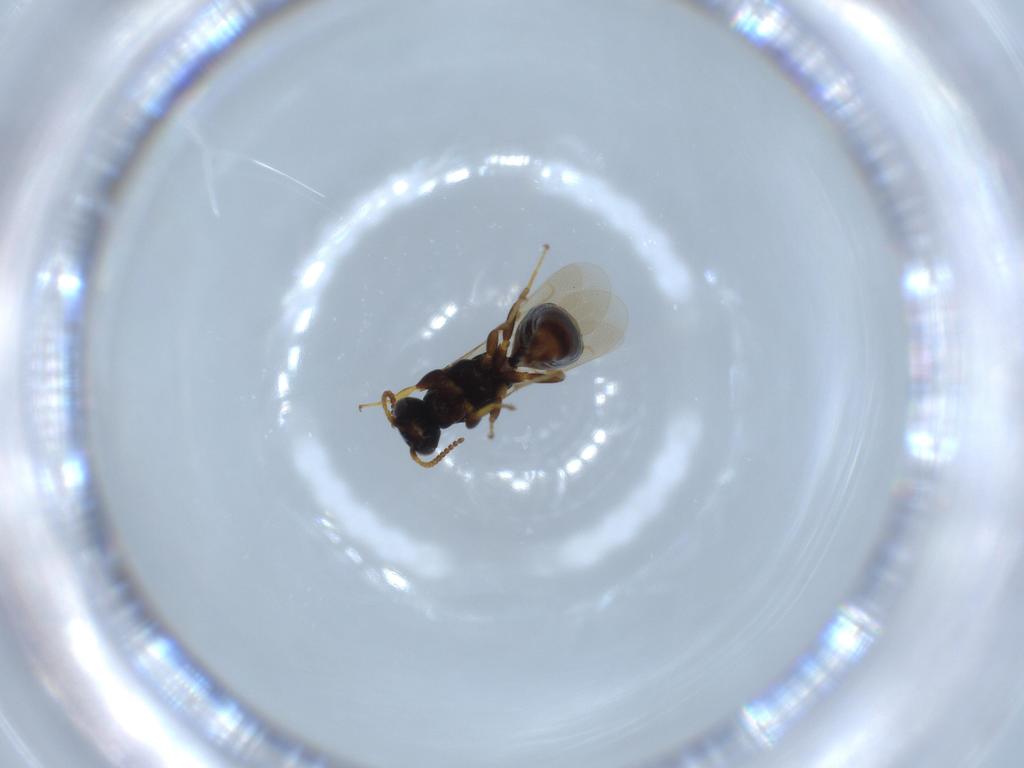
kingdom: Animalia
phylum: Arthropoda
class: Insecta
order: Hymenoptera
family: Bethylidae
